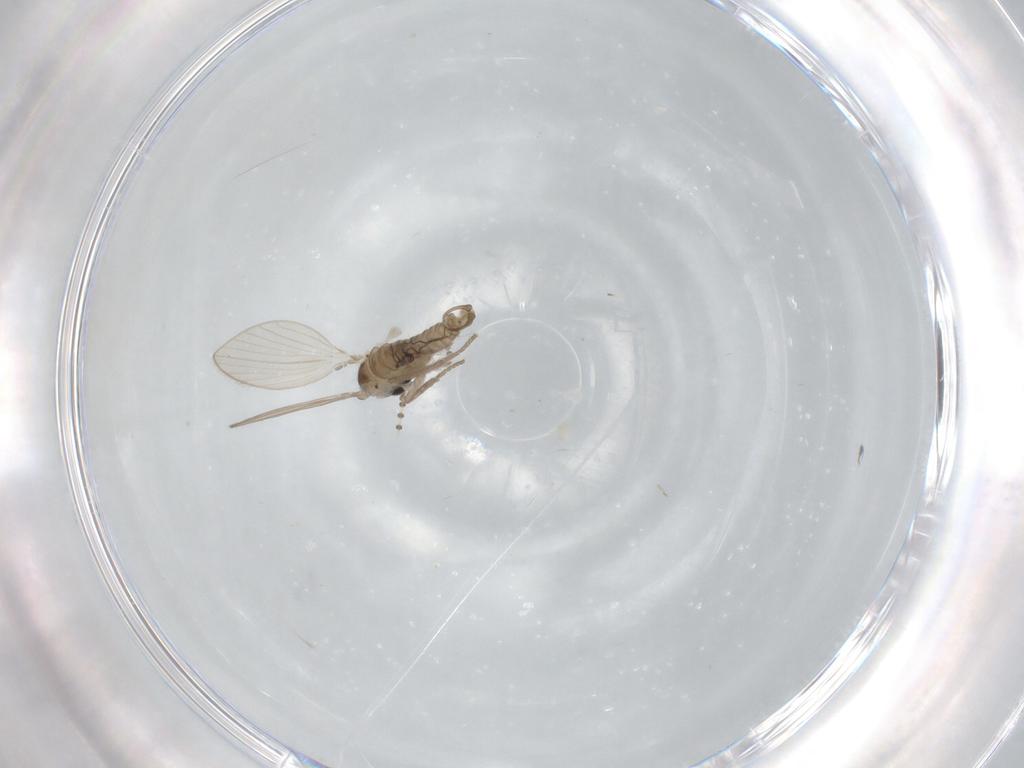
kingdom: Animalia
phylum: Arthropoda
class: Insecta
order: Diptera
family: Psychodidae
